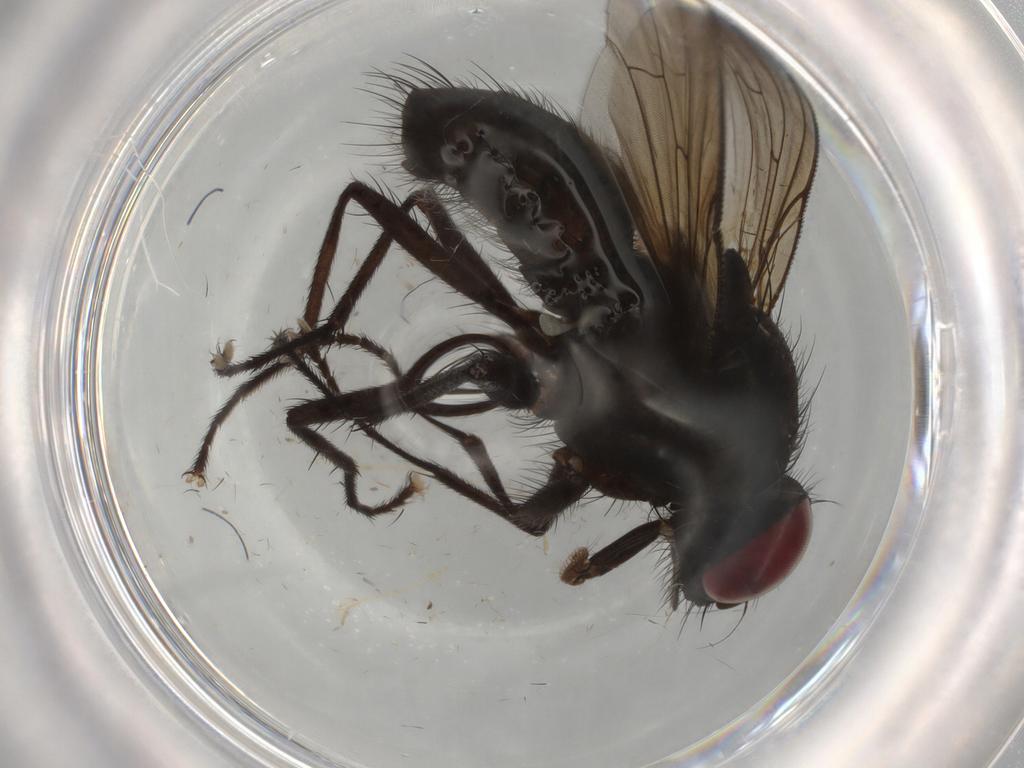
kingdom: Animalia
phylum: Arthropoda
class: Insecta
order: Diptera
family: Muscidae
